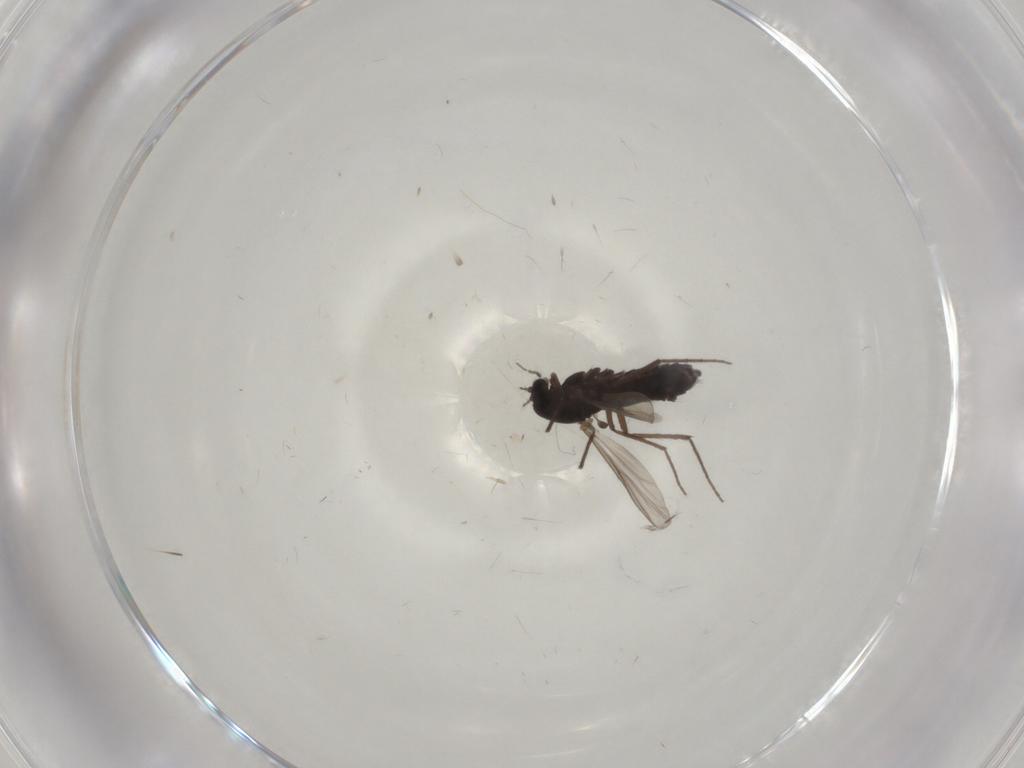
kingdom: Animalia
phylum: Arthropoda
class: Insecta
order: Diptera
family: Chironomidae
